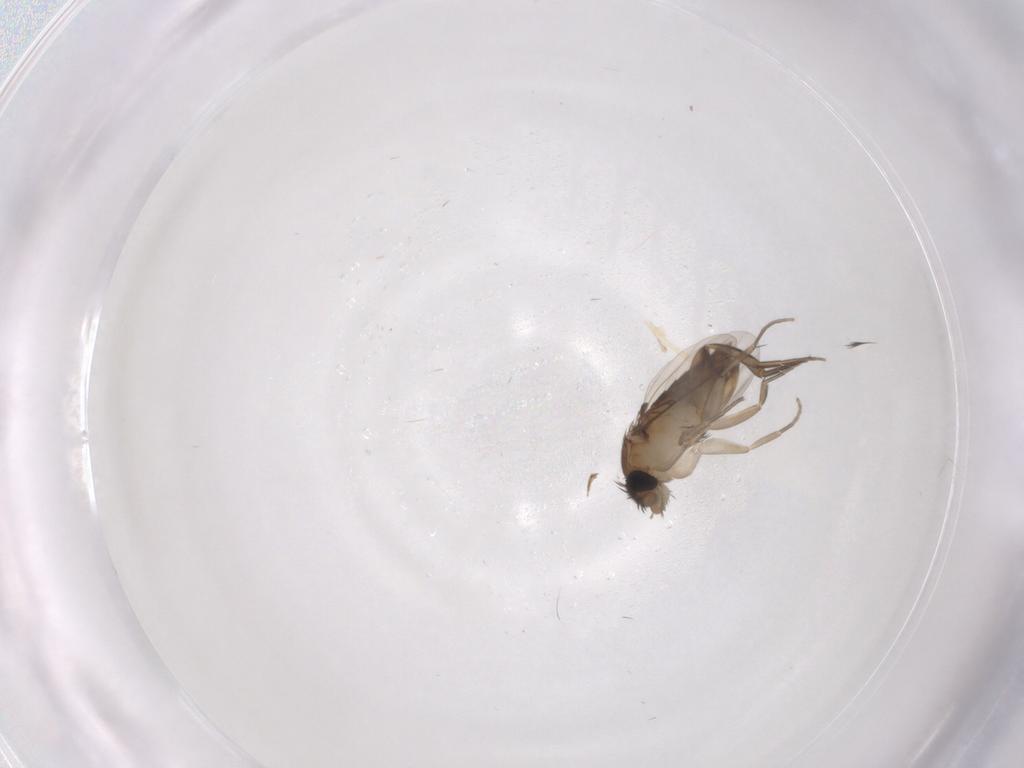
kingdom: Animalia
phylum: Arthropoda
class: Insecta
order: Diptera
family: Phoridae
